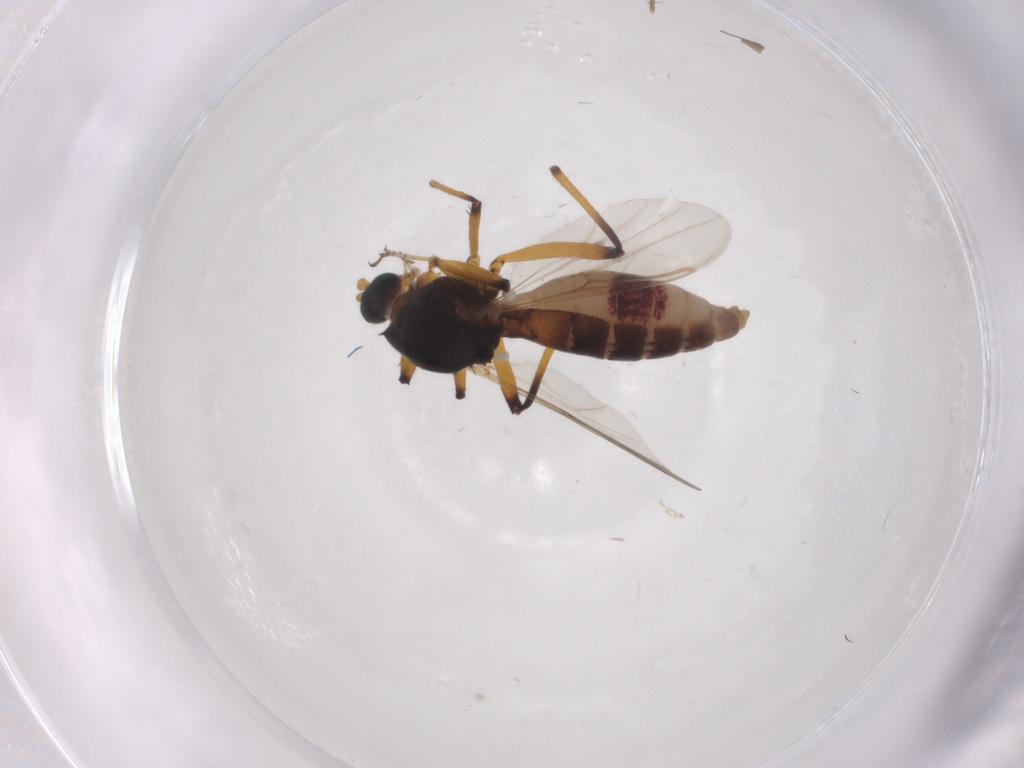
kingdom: Animalia
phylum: Arthropoda
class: Insecta
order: Diptera
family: Ceratopogonidae
